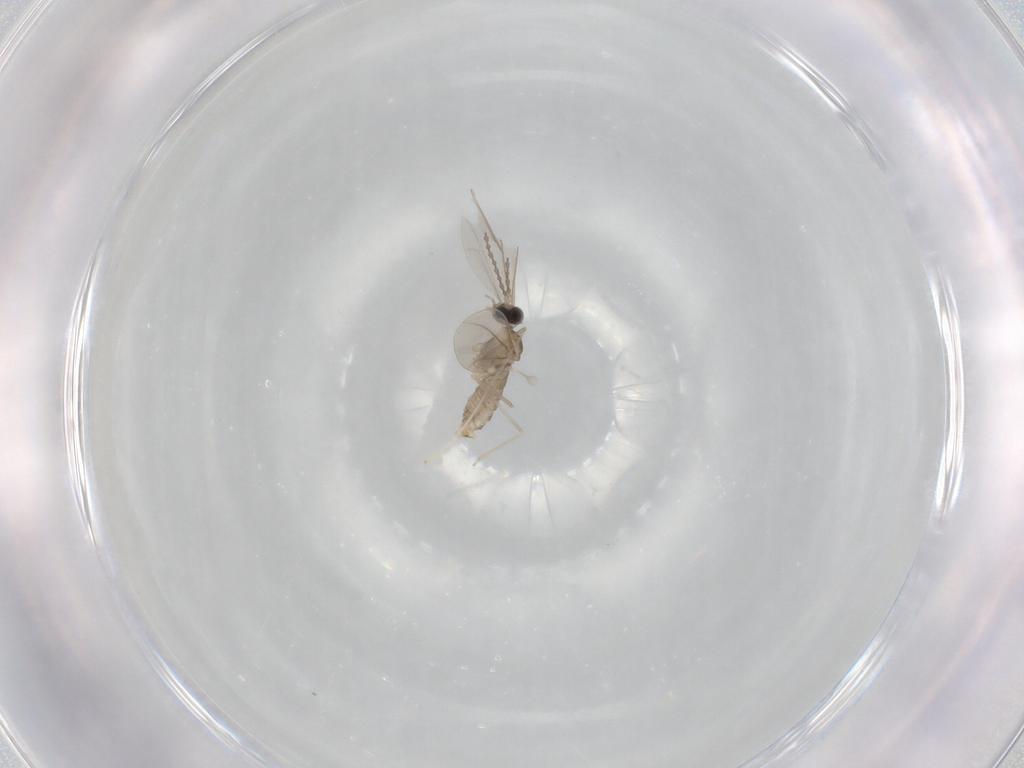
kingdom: Animalia
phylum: Arthropoda
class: Insecta
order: Diptera
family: Cecidomyiidae
